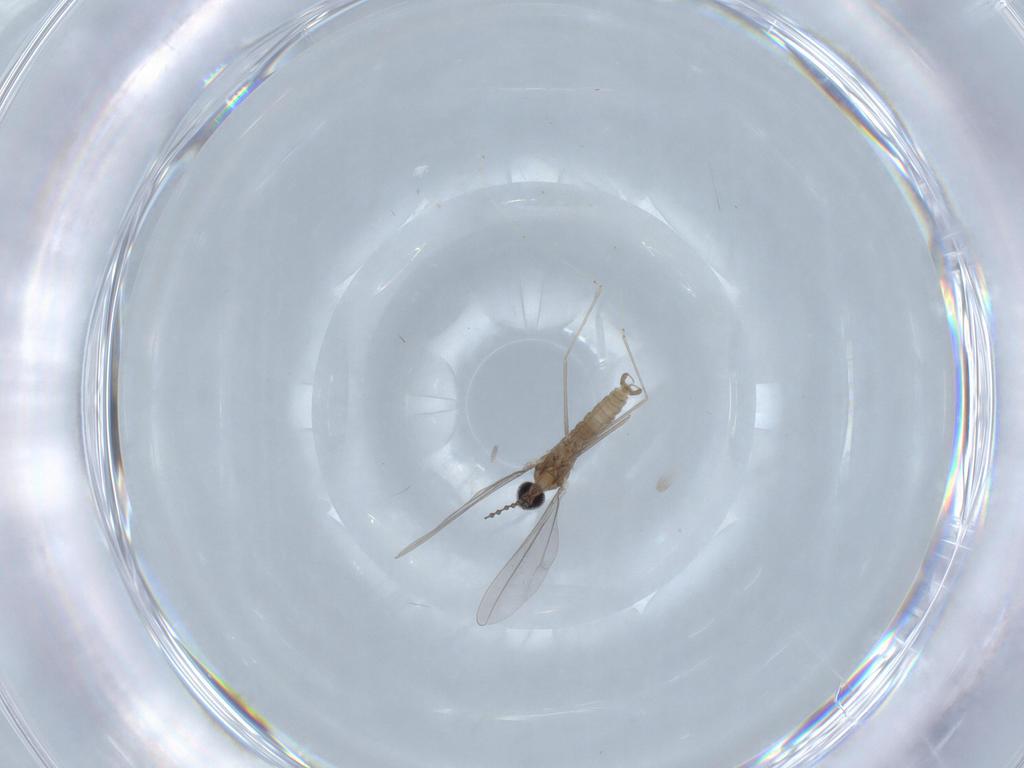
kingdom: Animalia
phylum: Arthropoda
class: Insecta
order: Diptera
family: Cecidomyiidae
